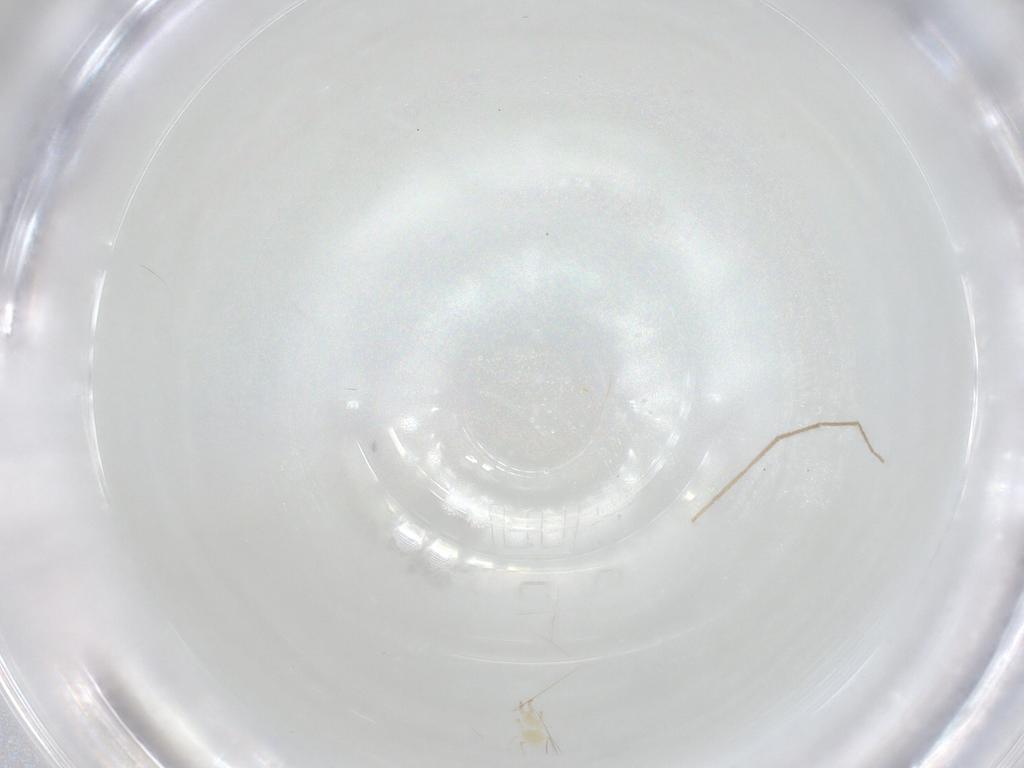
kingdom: Animalia
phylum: Arthropoda
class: Arachnida
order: Mesostigmata
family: Phytoseiidae
